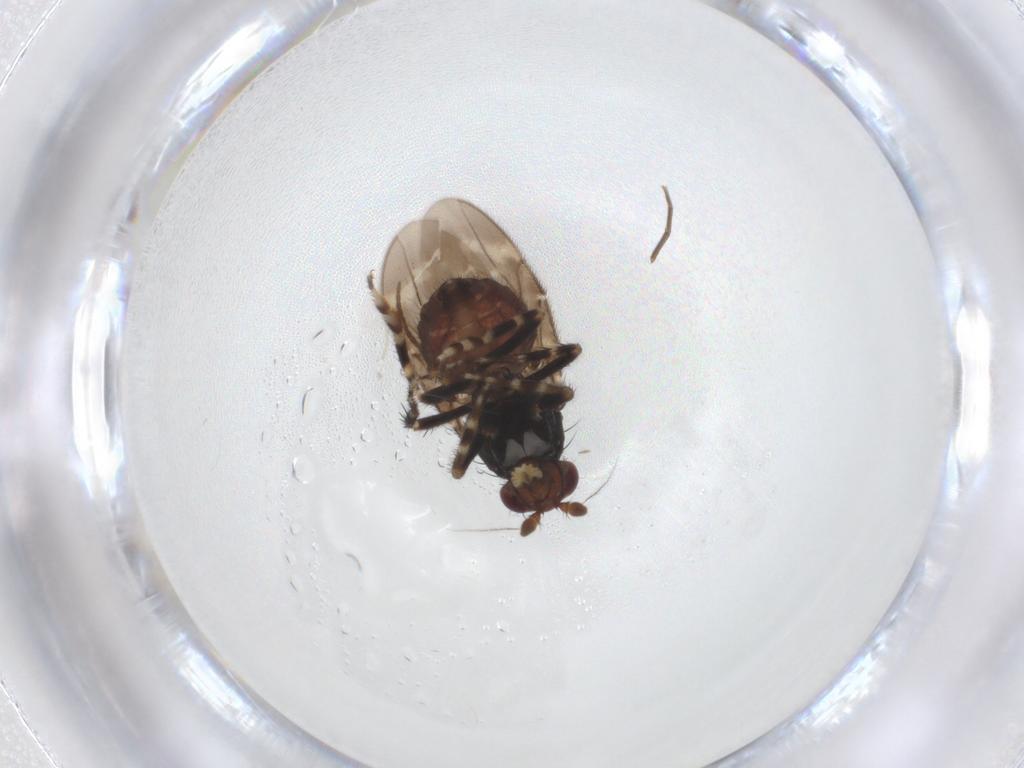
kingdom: Animalia
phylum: Arthropoda
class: Insecta
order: Diptera
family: Sphaeroceridae
